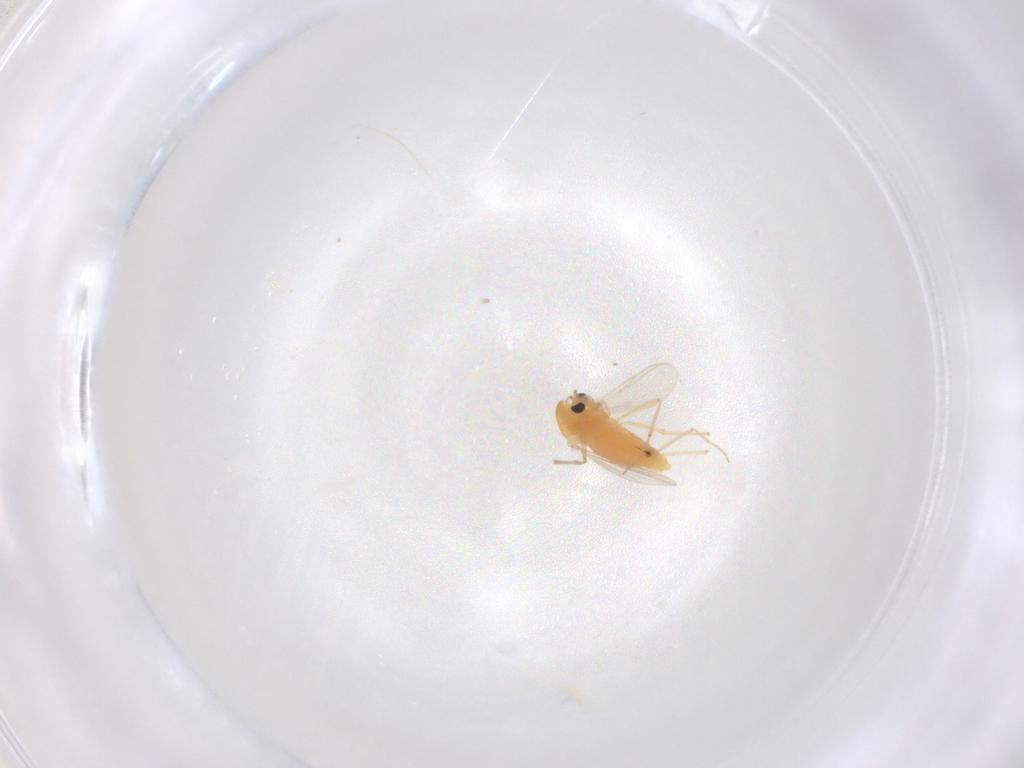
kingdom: Animalia
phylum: Arthropoda
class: Insecta
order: Diptera
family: Chironomidae
